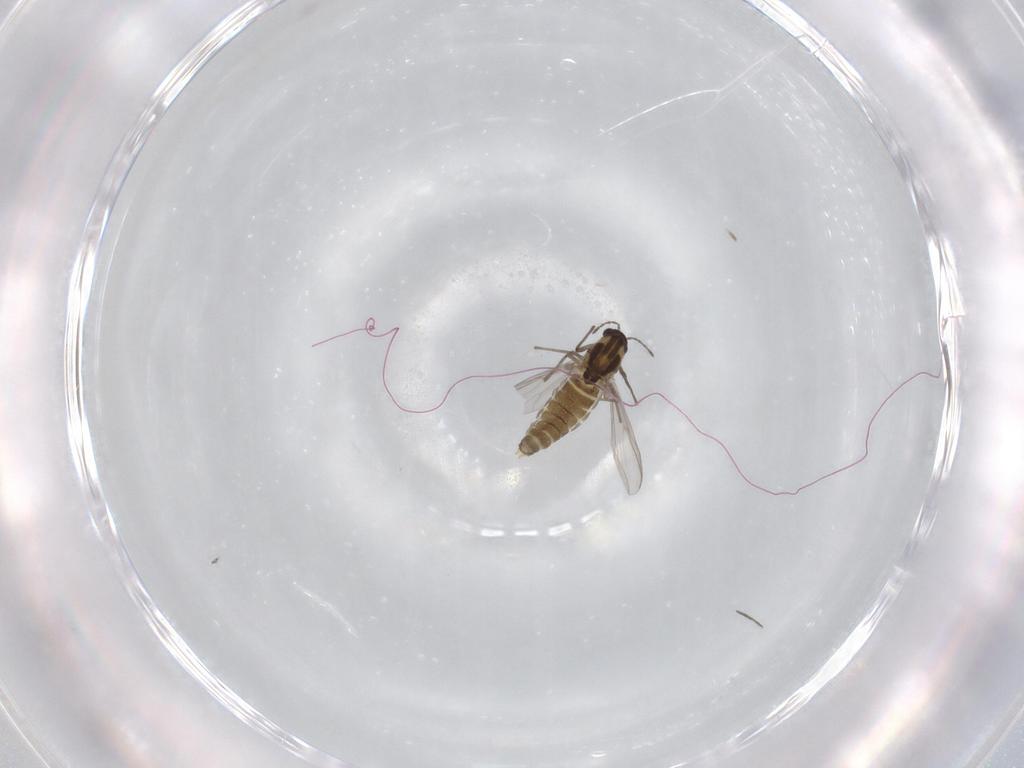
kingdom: Animalia
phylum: Arthropoda
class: Insecta
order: Diptera
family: Chironomidae
